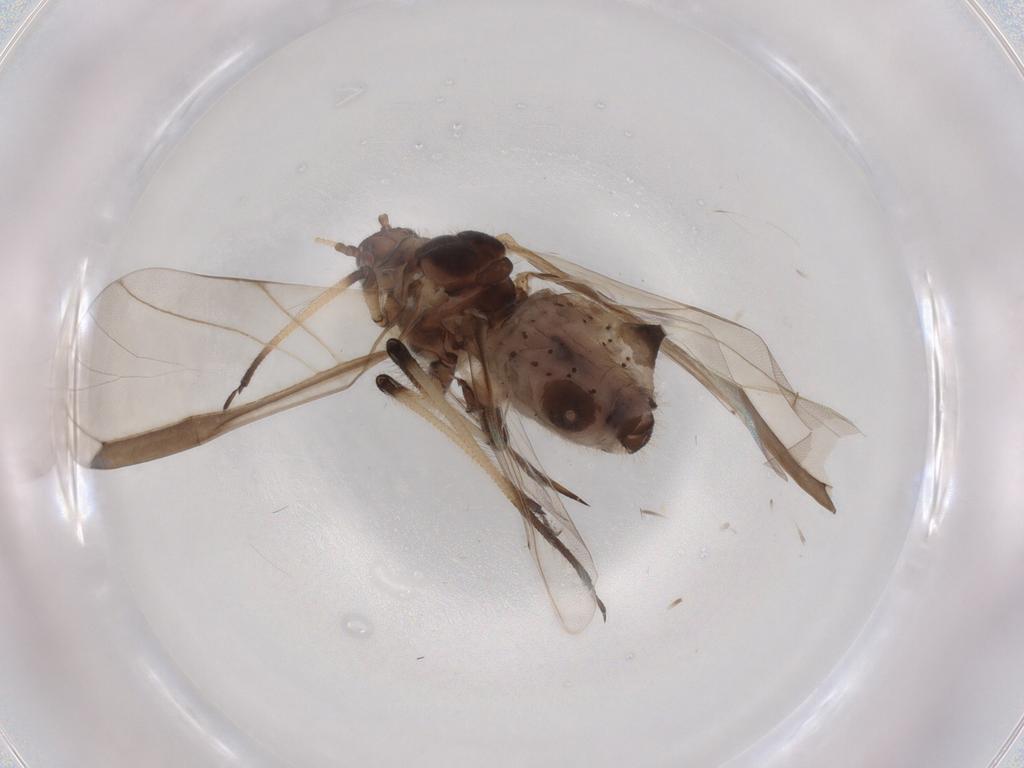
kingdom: Animalia
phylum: Arthropoda
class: Insecta
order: Hemiptera
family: Aphididae
